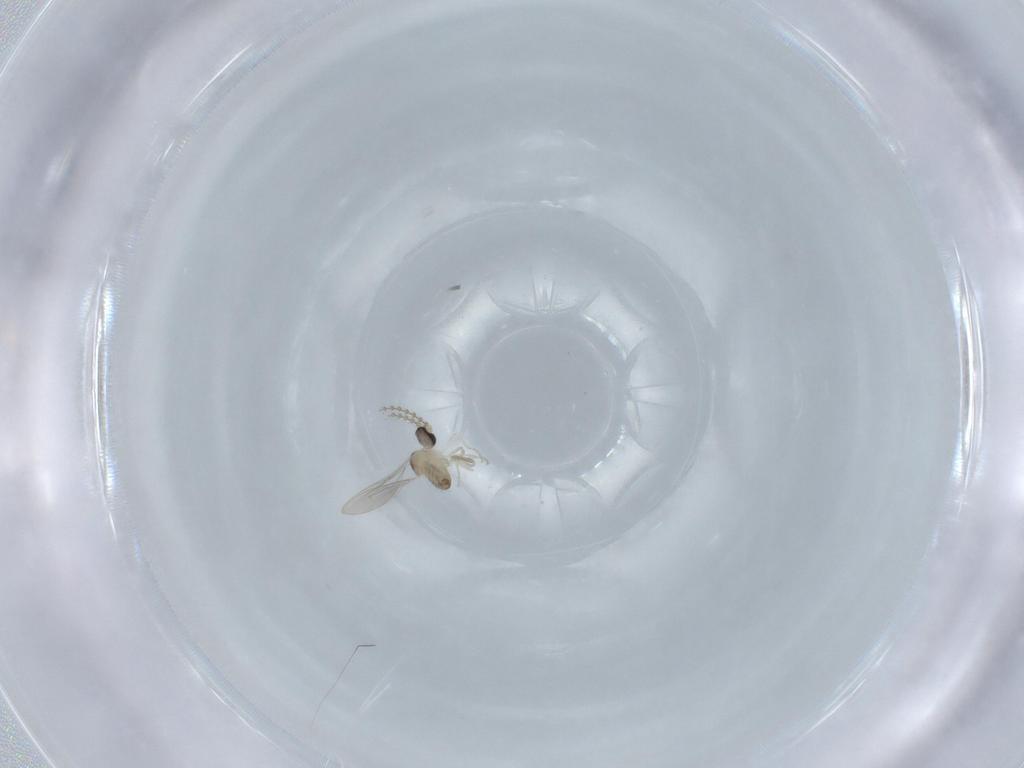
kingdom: Animalia
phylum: Arthropoda
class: Insecta
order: Diptera
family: Cecidomyiidae
